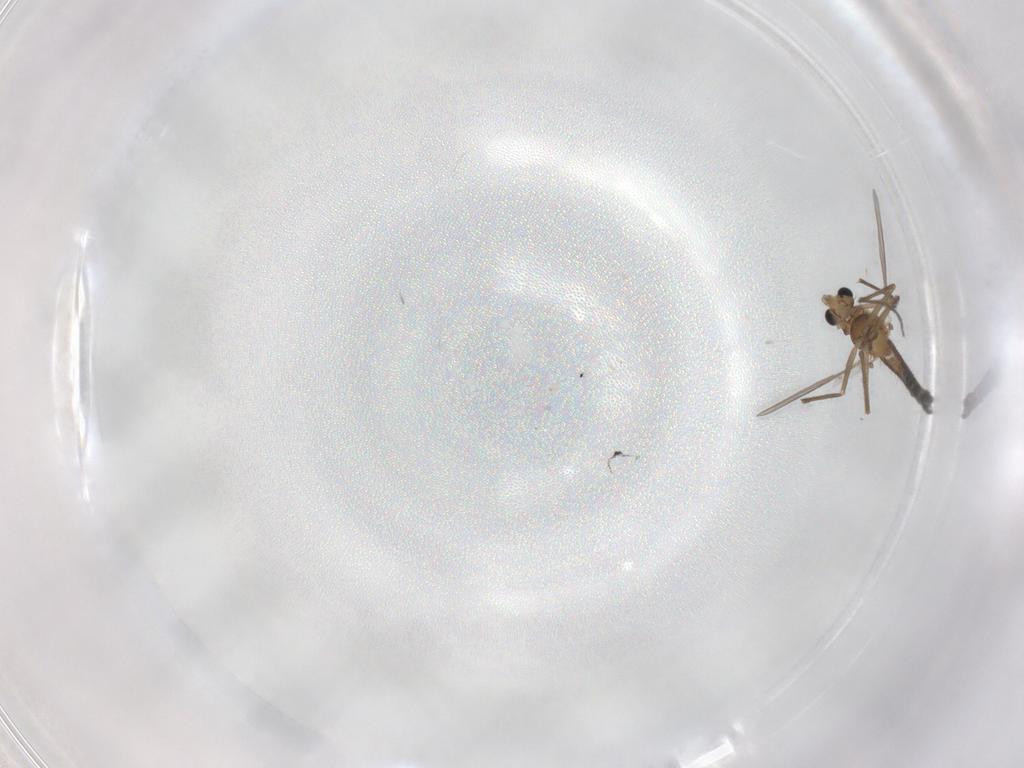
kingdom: Animalia
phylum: Arthropoda
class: Insecta
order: Diptera
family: Chironomidae
